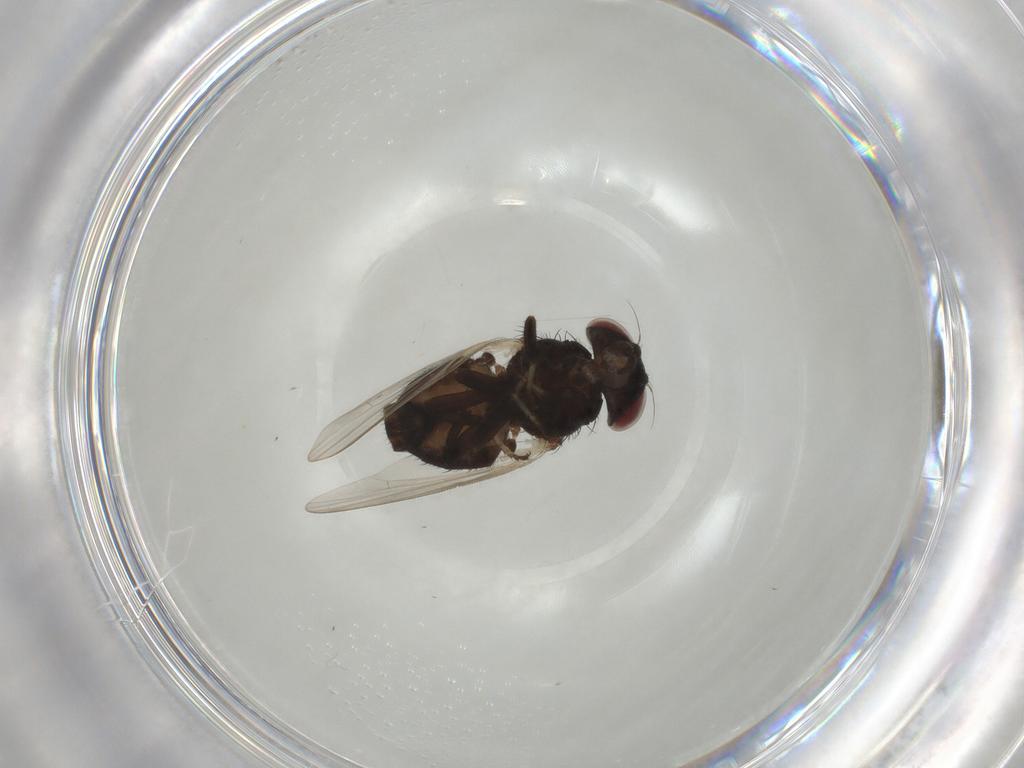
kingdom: Animalia
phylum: Arthropoda
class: Insecta
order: Diptera
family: Lonchaeidae
